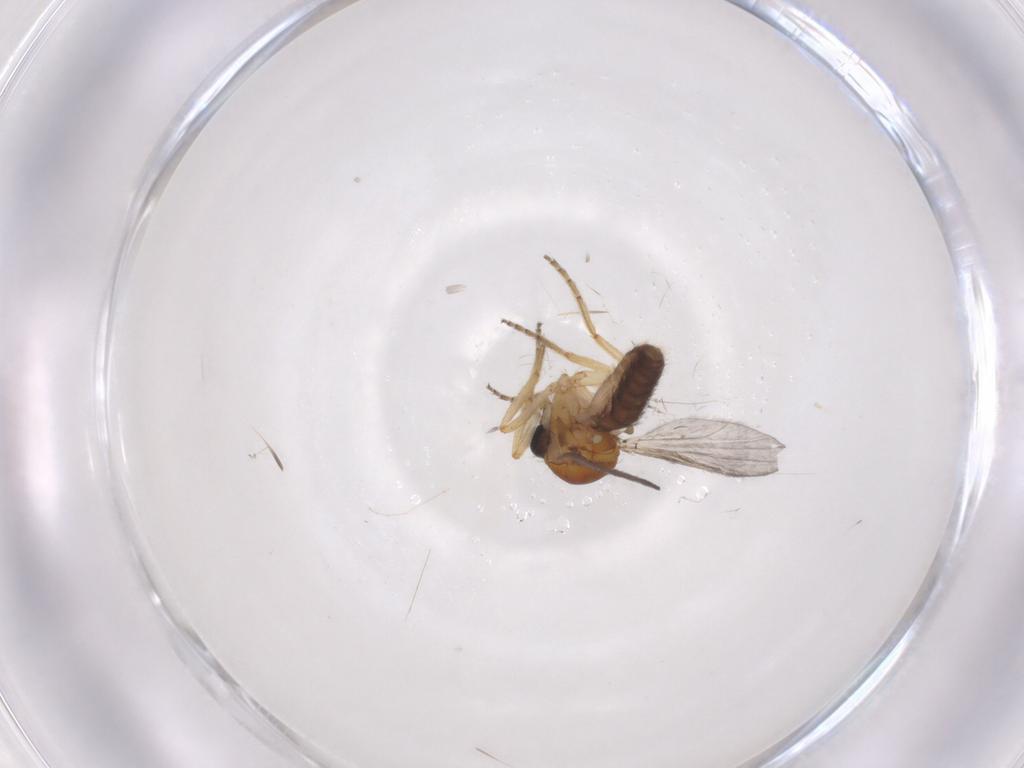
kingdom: Animalia
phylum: Arthropoda
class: Insecta
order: Diptera
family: Ceratopogonidae
